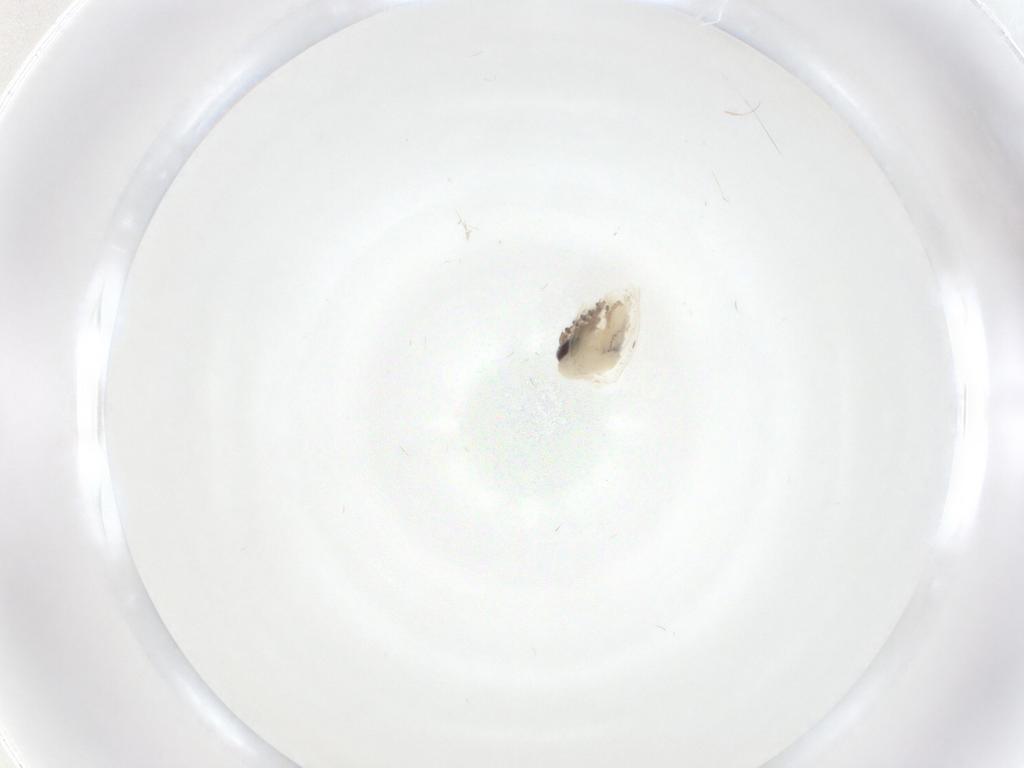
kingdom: Animalia
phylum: Arthropoda
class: Insecta
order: Diptera
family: Psychodidae
